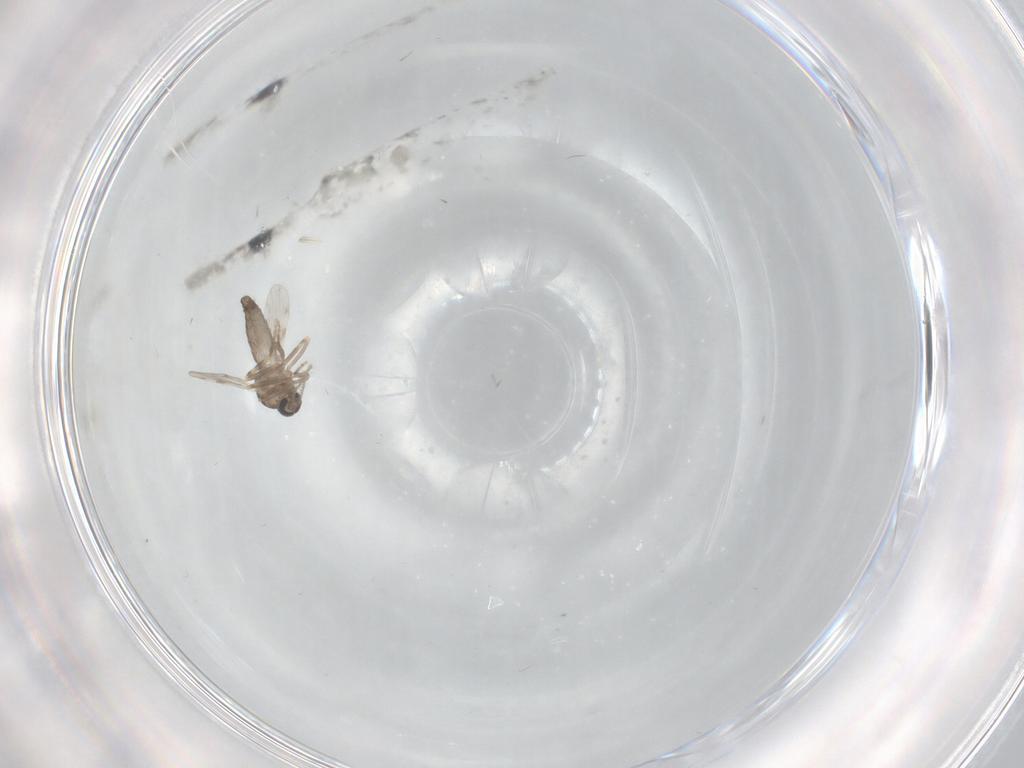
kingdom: Animalia
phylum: Arthropoda
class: Insecta
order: Diptera
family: Ceratopogonidae
